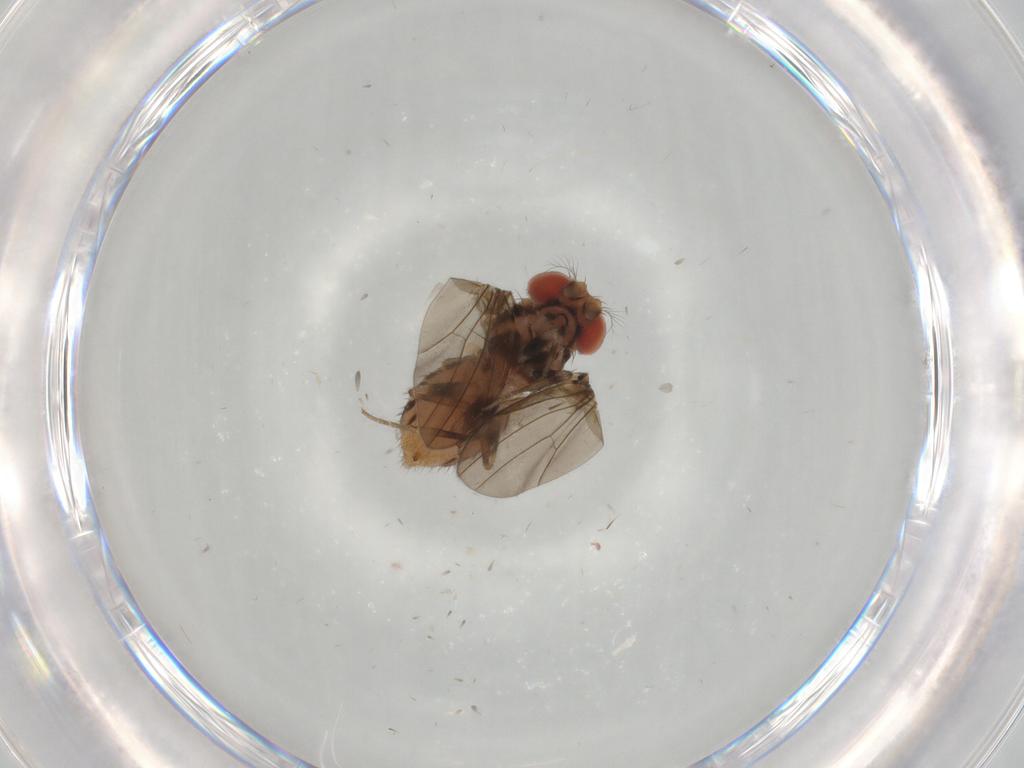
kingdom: Animalia
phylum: Arthropoda
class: Insecta
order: Diptera
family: Drosophilidae
